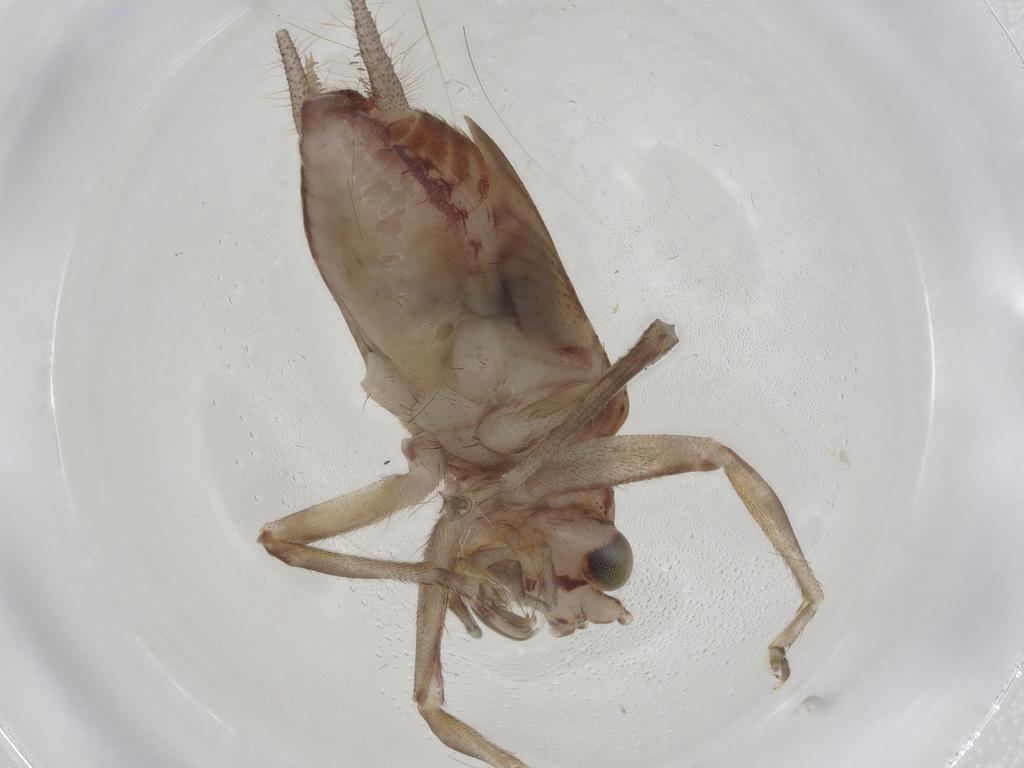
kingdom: Animalia
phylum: Arthropoda
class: Insecta
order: Orthoptera
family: Trigonidiidae
